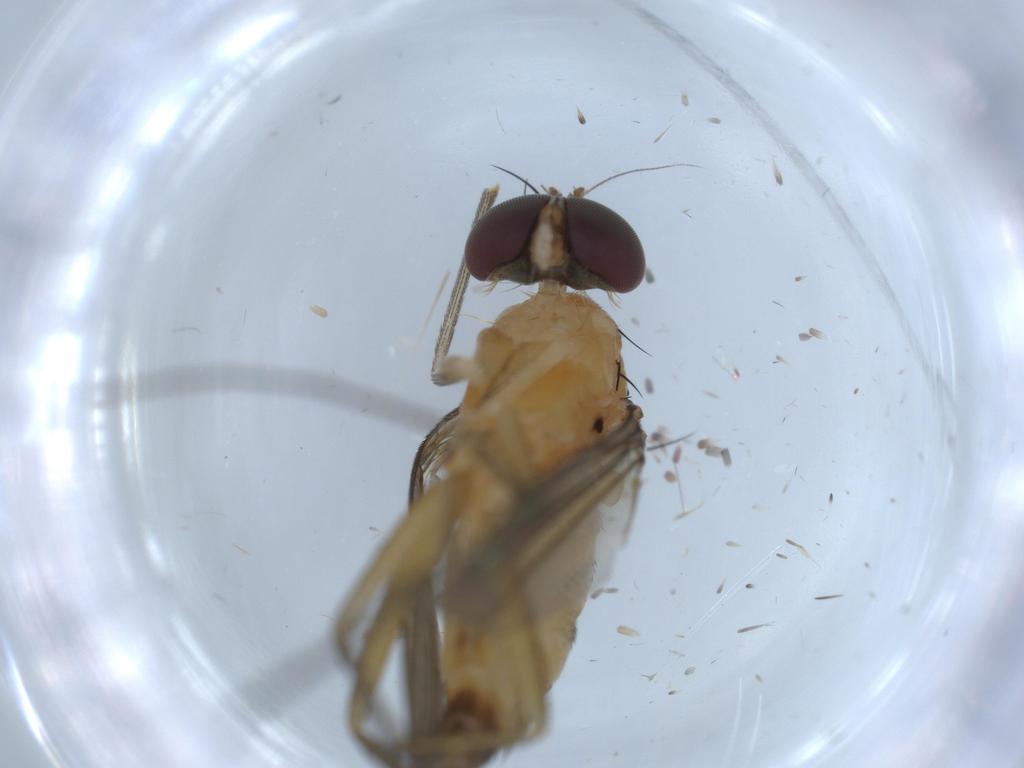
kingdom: Animalia
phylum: Arthropoda
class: Insecta
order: Diptera
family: Dolichopodidae
